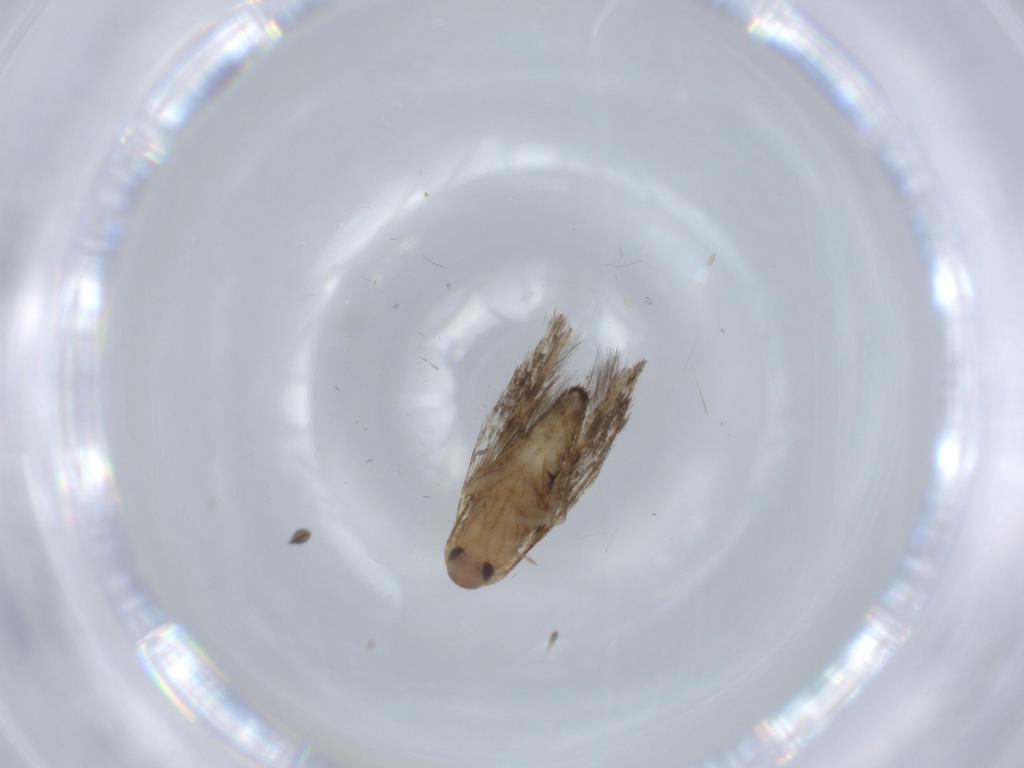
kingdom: Animalia
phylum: Arthropoda
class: Insecta
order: Lepidoptera
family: Cosmopterigidae
